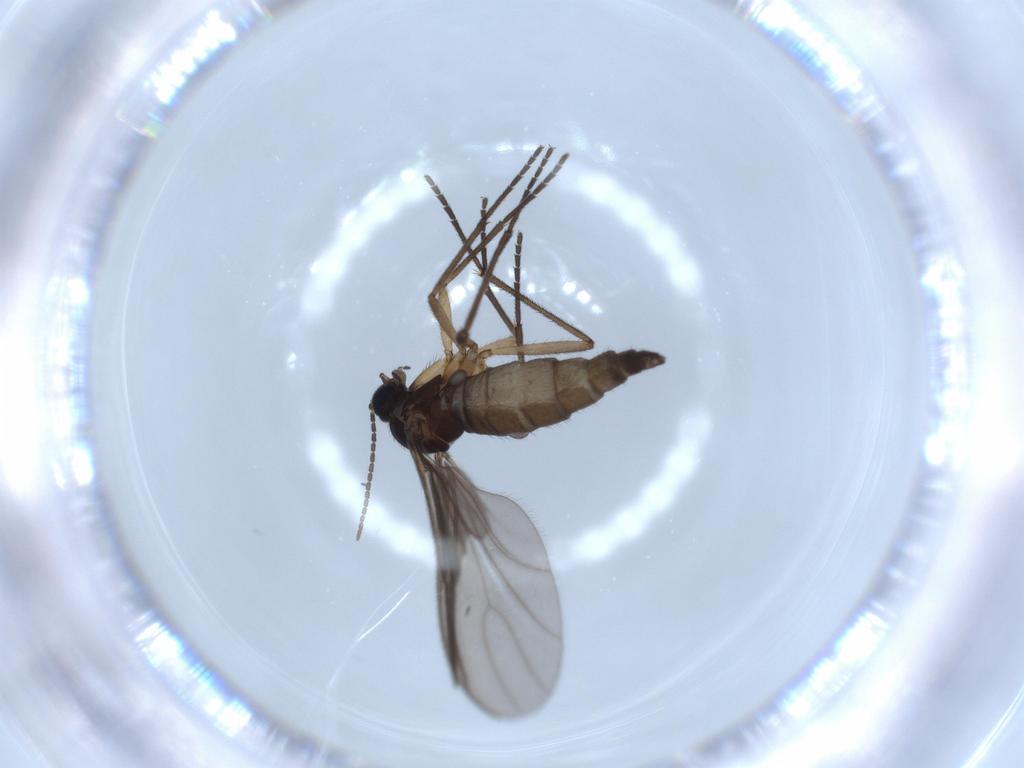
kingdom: Animalia
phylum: Arthropoda
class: Insecta
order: Diptera
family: Sciaridae
